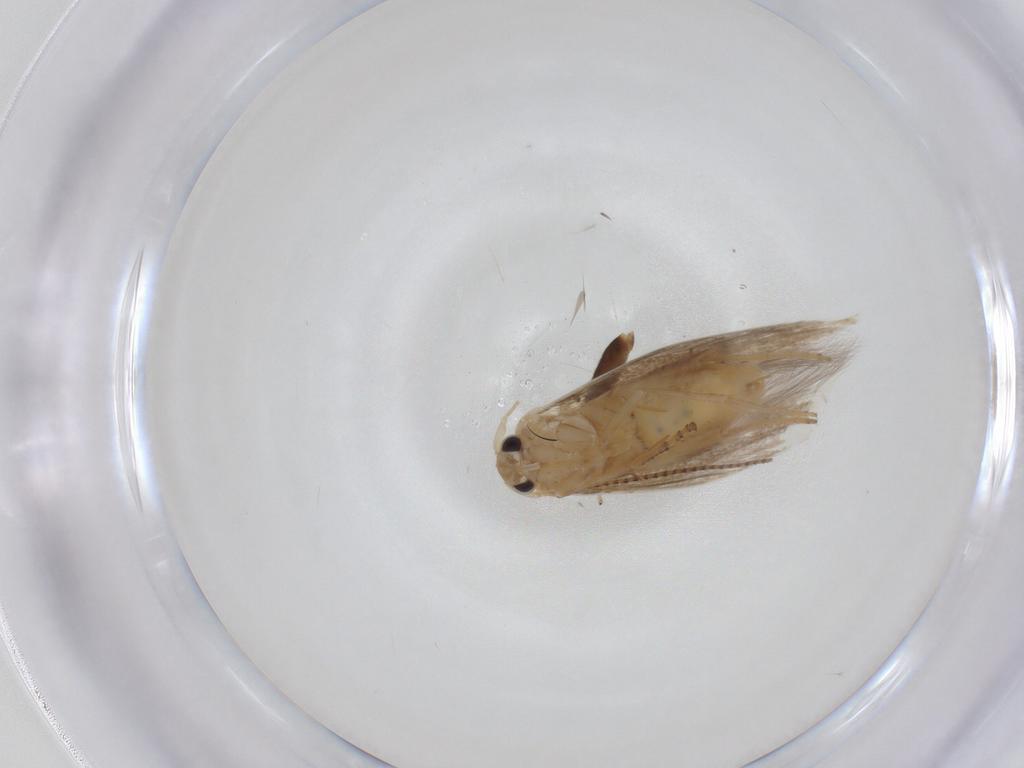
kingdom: Animalia
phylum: Arthropoda
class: Insecta
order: Lepidoptera
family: Bucculatricidae
